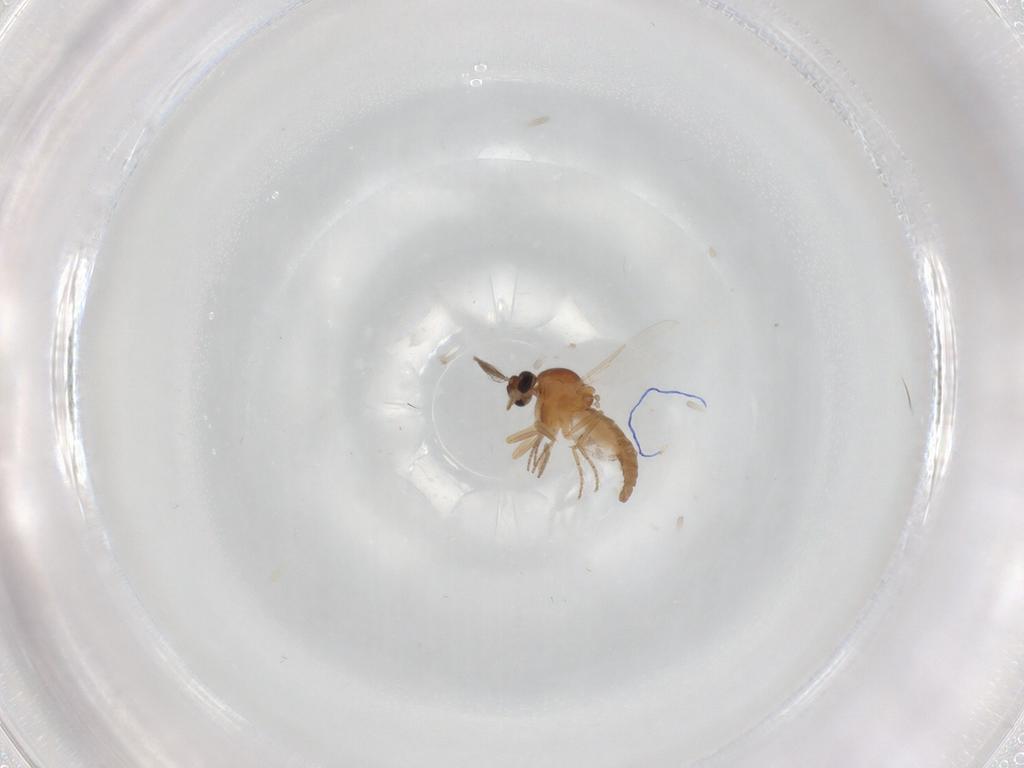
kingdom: Animalia
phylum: Arthropoda
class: Insecta
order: Diptera
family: Ceratopogonidae
